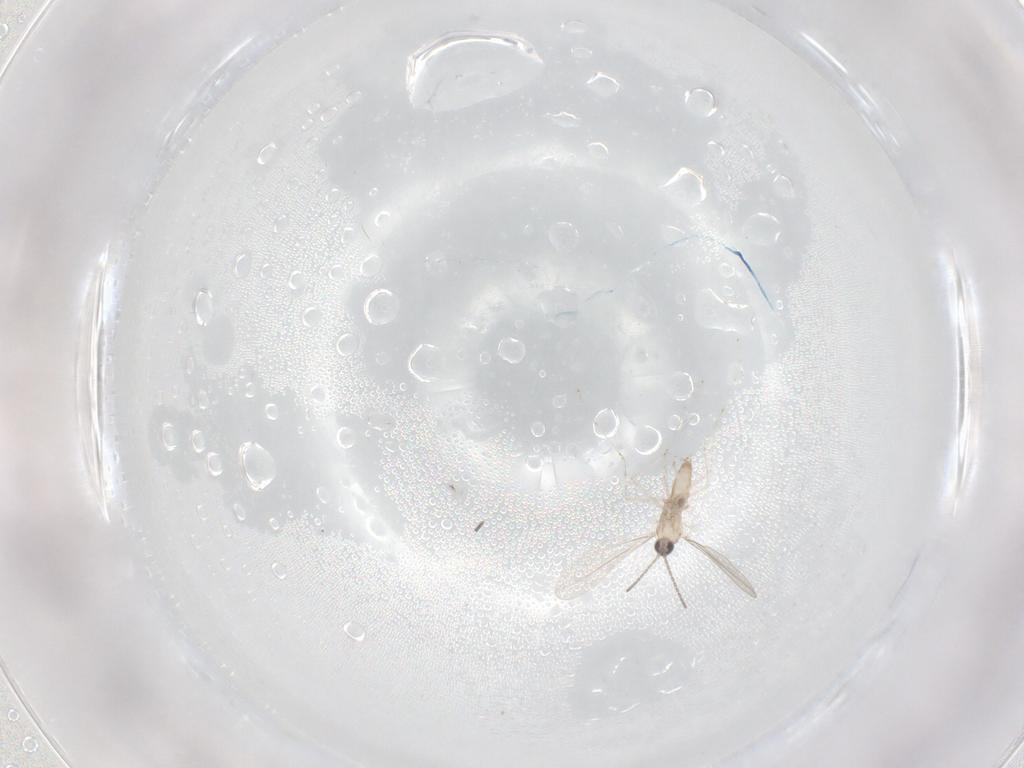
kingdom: Animalia
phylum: Arthropoda
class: Insecta
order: Diptera
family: Cecidomyiidae
